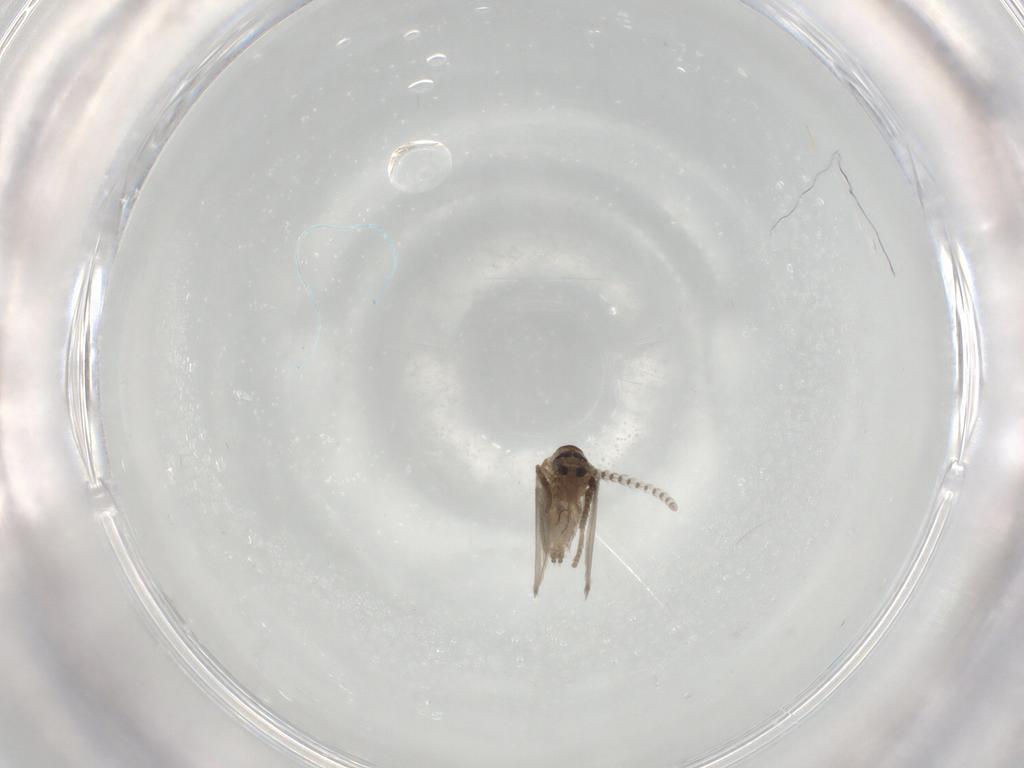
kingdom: Animalia
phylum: Arthropoda
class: Insecta
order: Diptera
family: Psychodidae
